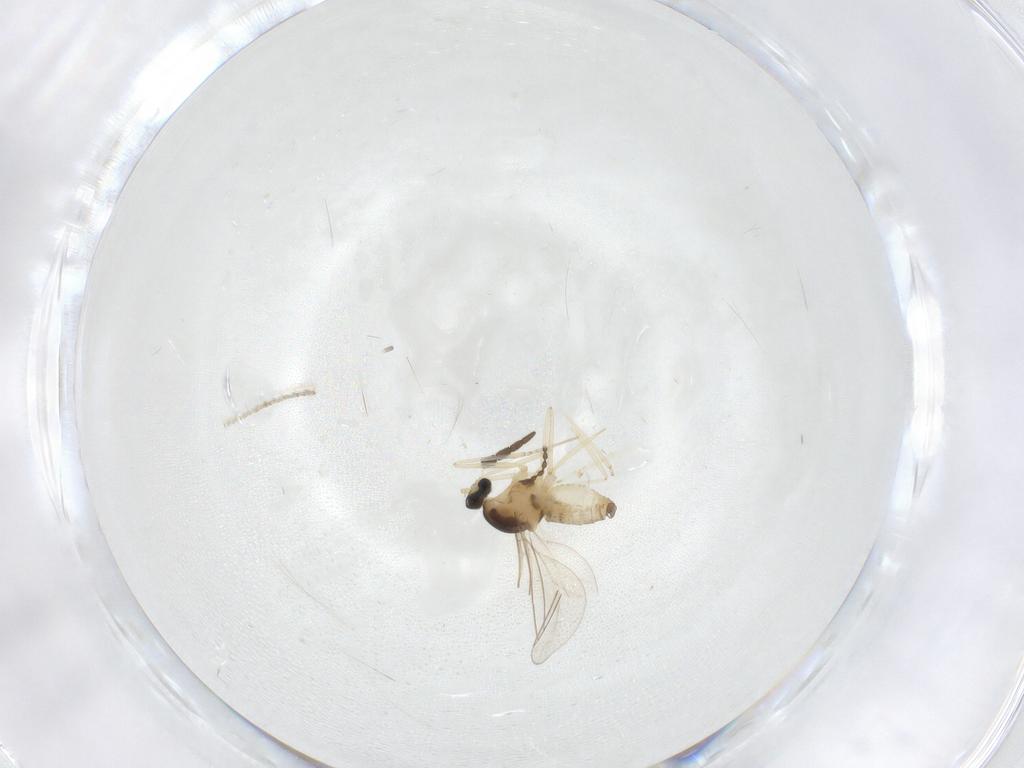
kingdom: Animalia
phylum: Arthropoda
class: Insecta
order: Diptera
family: Cecidomyiidae
